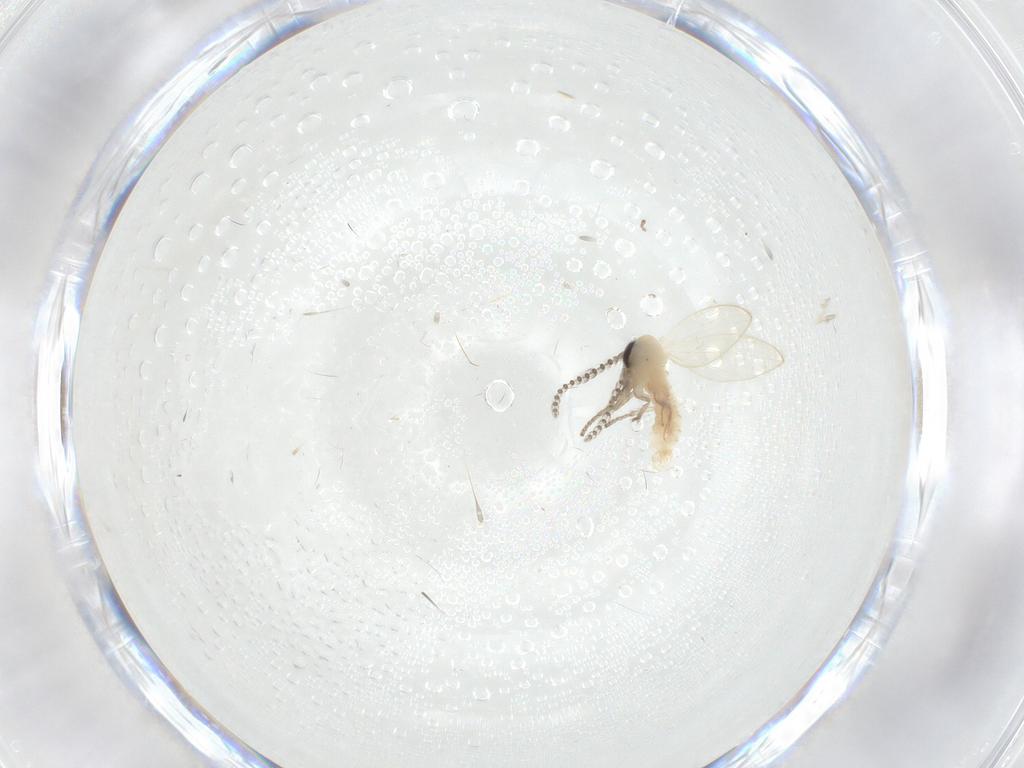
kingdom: Animalia
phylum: Arthropoda
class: Insecta
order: Diptera
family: Psychodidae
